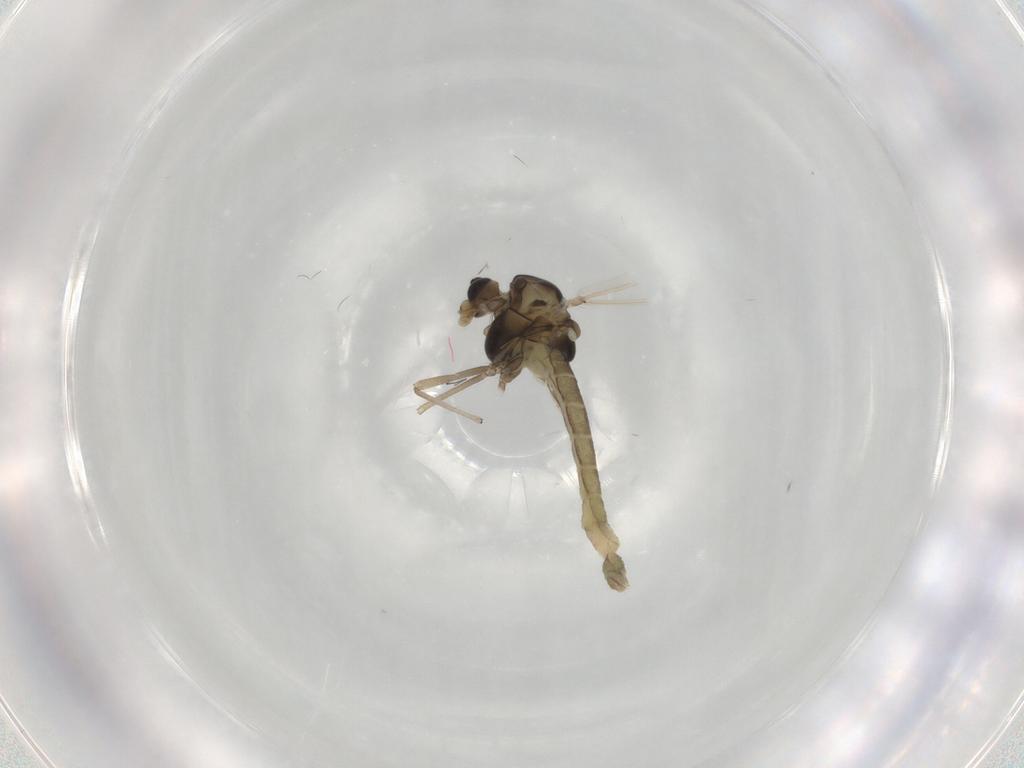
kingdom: Animalia
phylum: Arthropoda
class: Insecta
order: Diptera
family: Chironomidae
